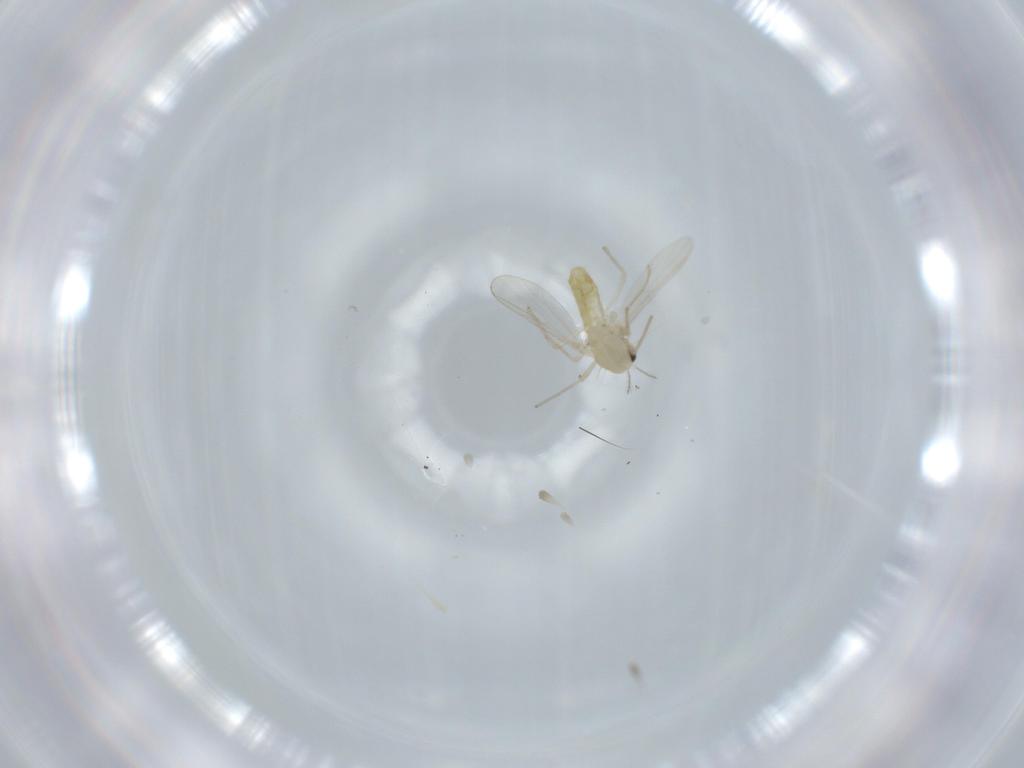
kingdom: Animalia
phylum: Arthropoda
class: Insecta
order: Diptera
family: Chironomidae
